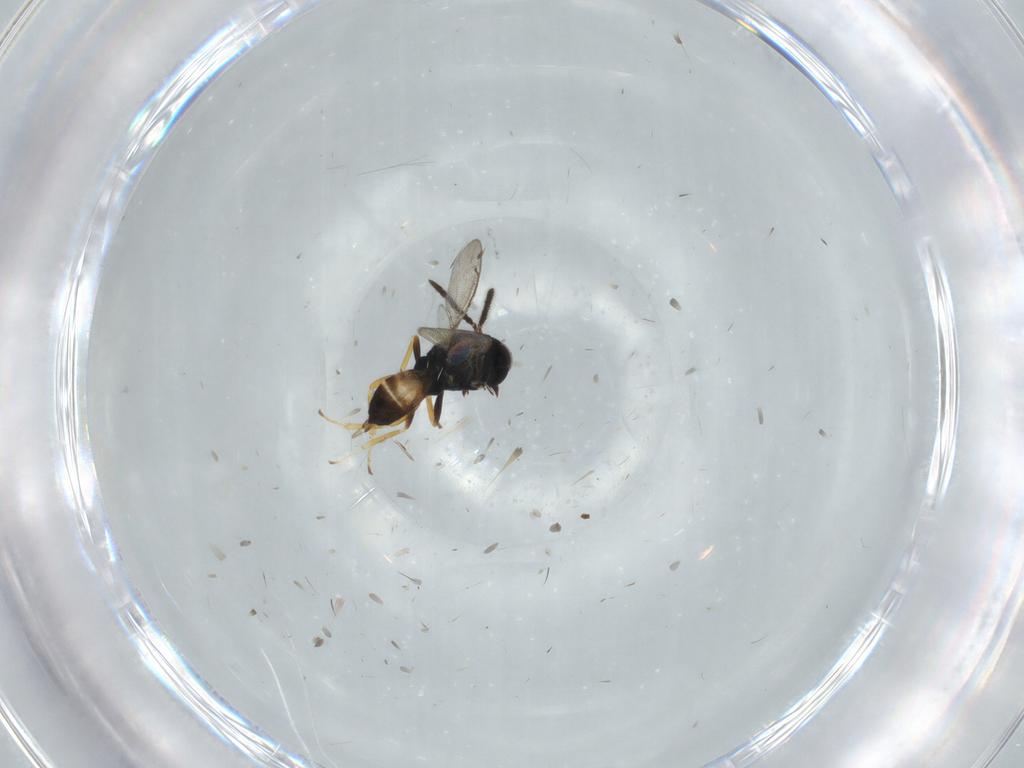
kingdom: Animalia
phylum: Arthropoda
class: Insecta
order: Hymenoptera
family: Pteromalidae
